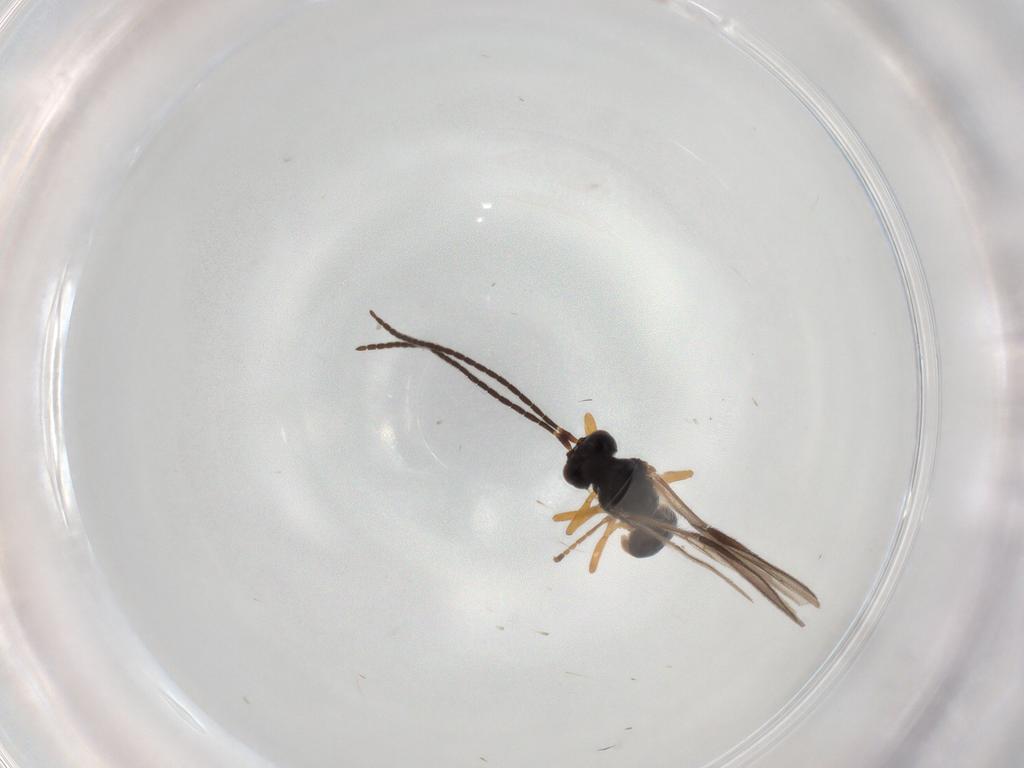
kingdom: Animalia
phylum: Arthropoda
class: Insecta
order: Hymenoptera
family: Braconidae
